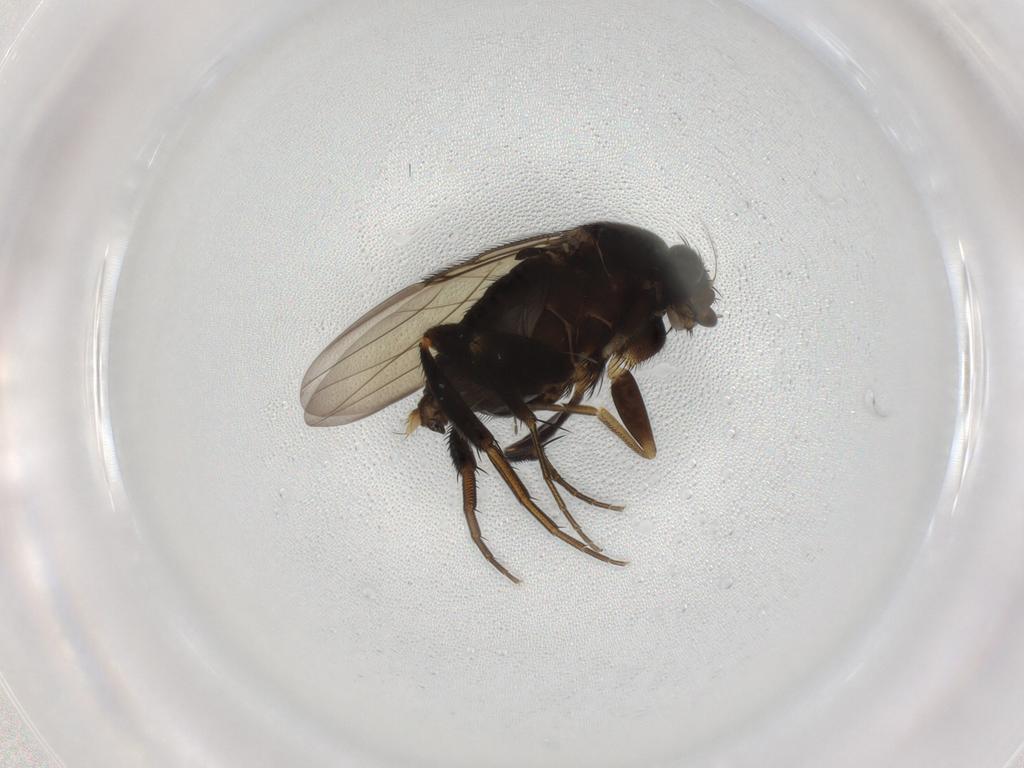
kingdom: Animalia
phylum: Arthropoda
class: Insecta
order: Diptera
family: Phoridae
